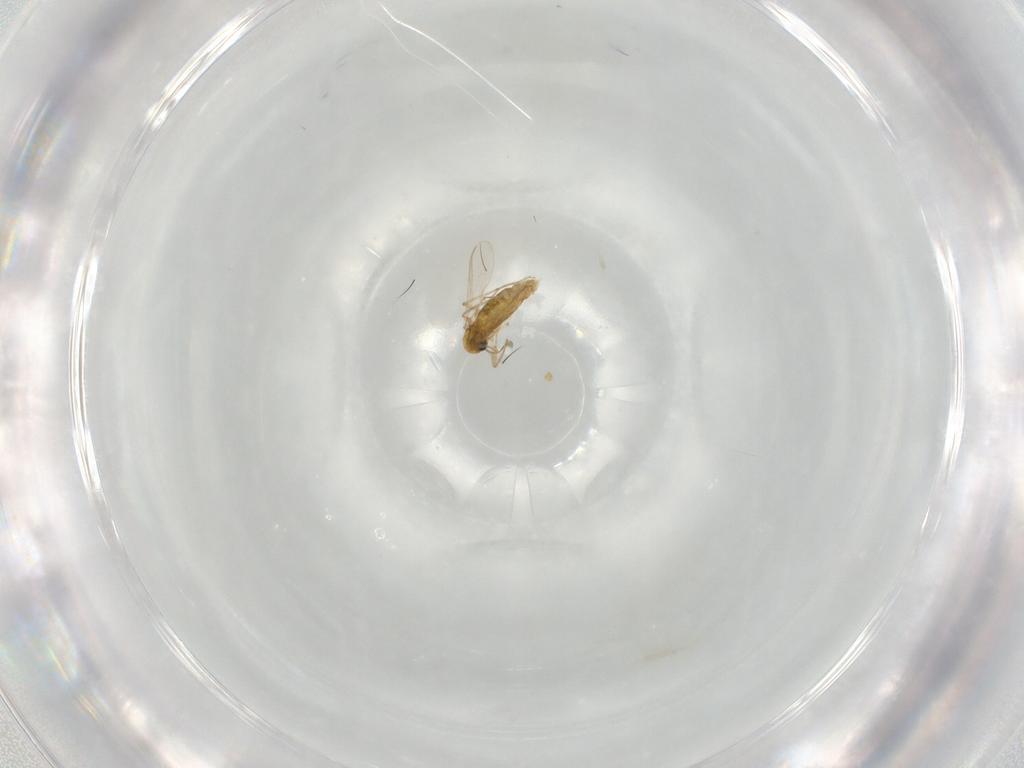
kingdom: Animalia
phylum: Arthropoda
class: Insecta
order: Diptera
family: Chironomidae
